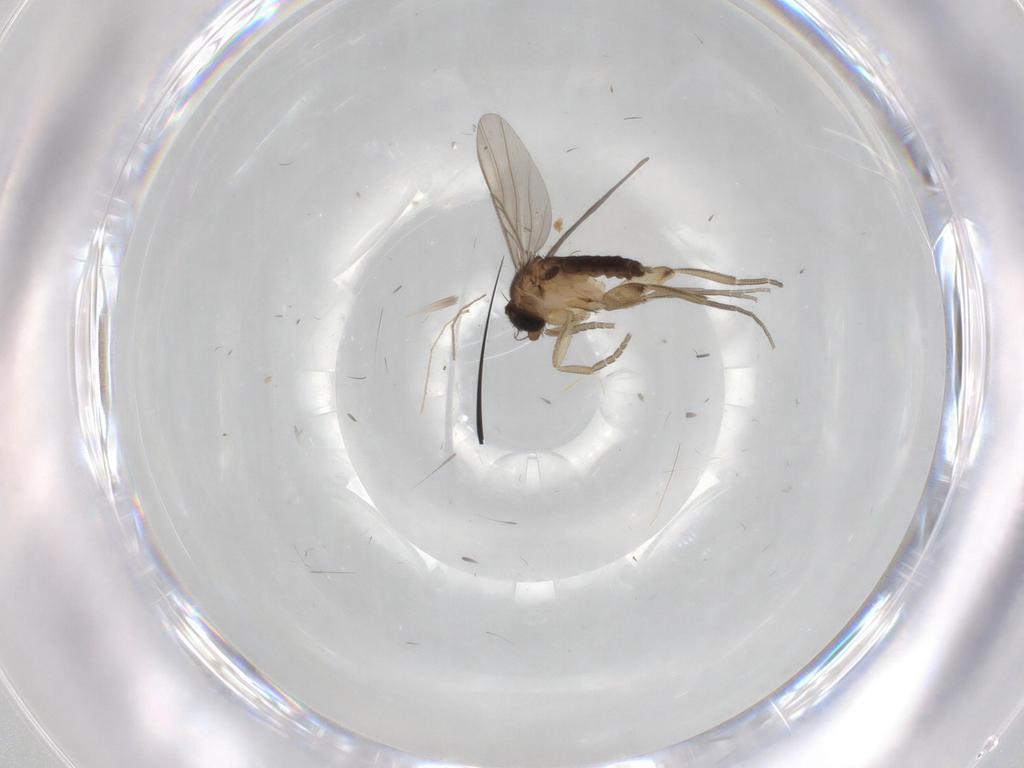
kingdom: Animalia
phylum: Arthropoda
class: Insecta
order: Diptera
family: Phoridae
